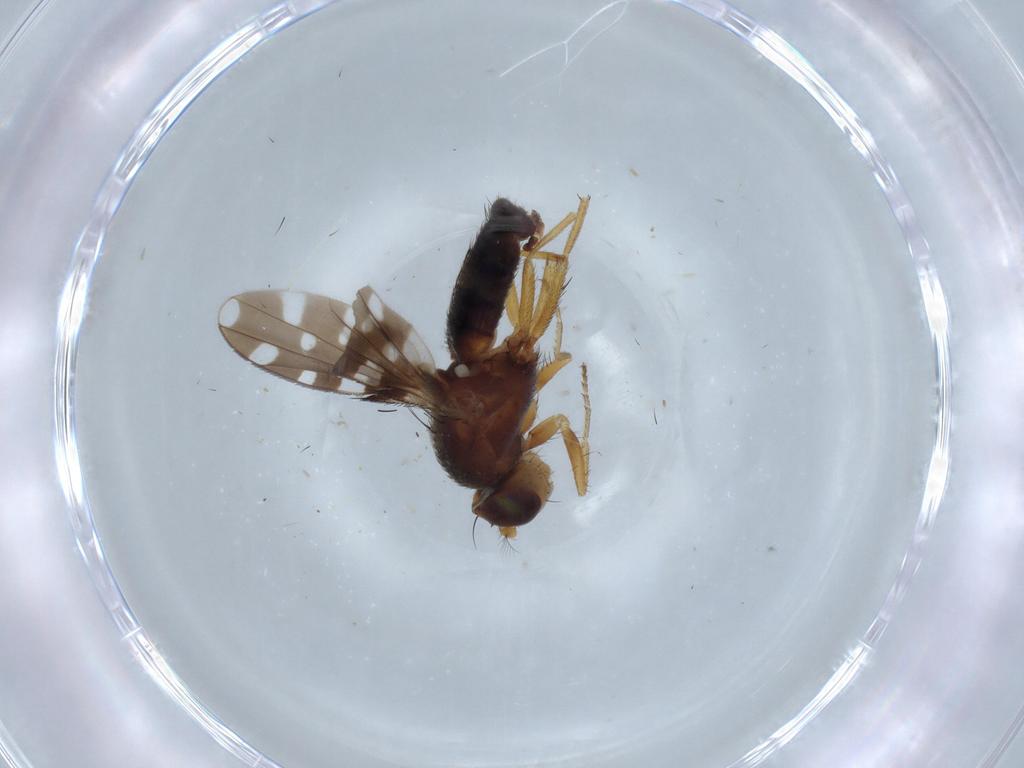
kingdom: Animalia
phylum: Arthropoda
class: Insecta
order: Diptera
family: Ephydridae
